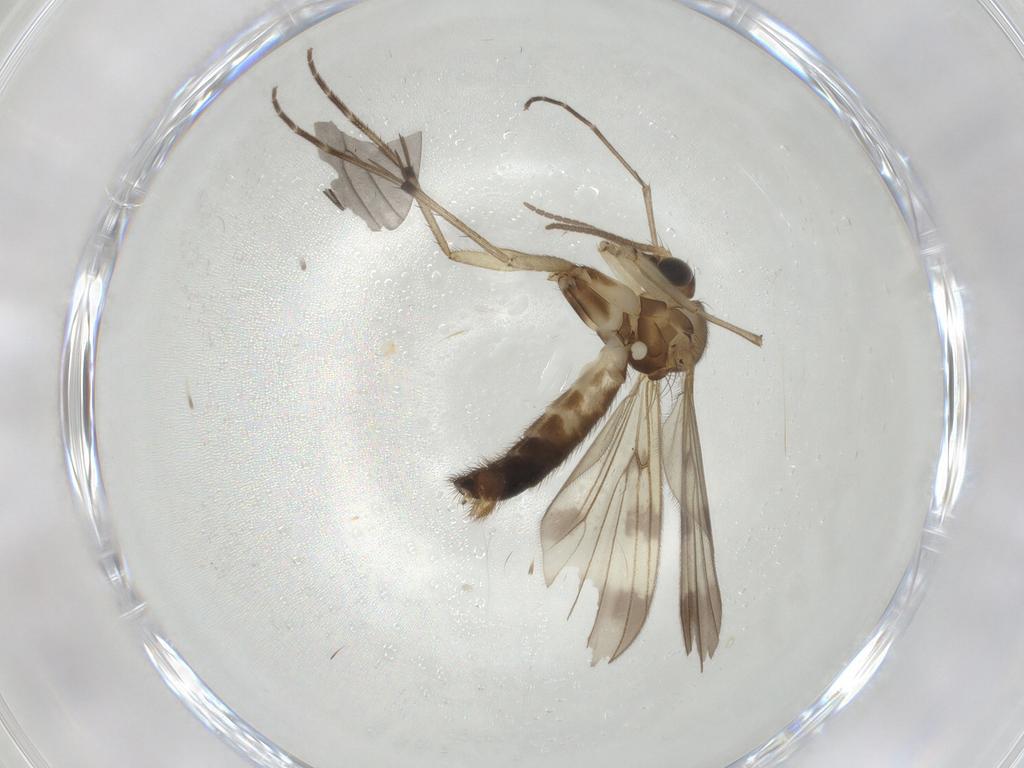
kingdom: Animalia
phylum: Arthropoda
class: Insecta
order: Diptera
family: Mycetophilidae
